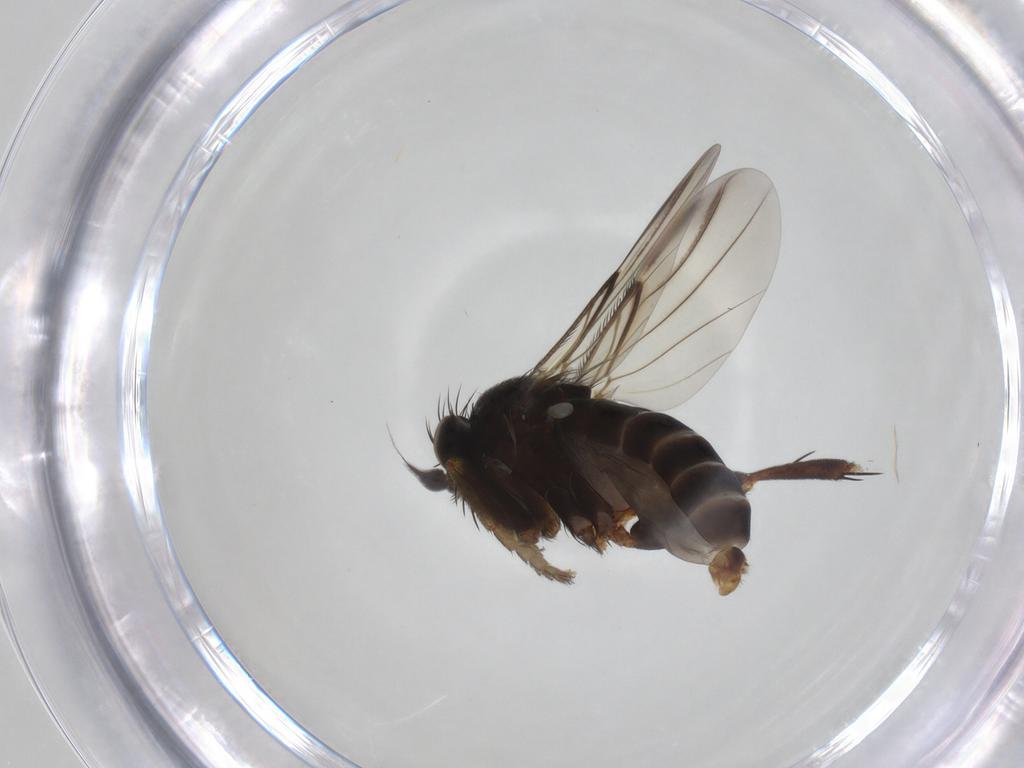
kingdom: Animalia
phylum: Arthropoda
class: Insecta
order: Diptera
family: Phoridae
